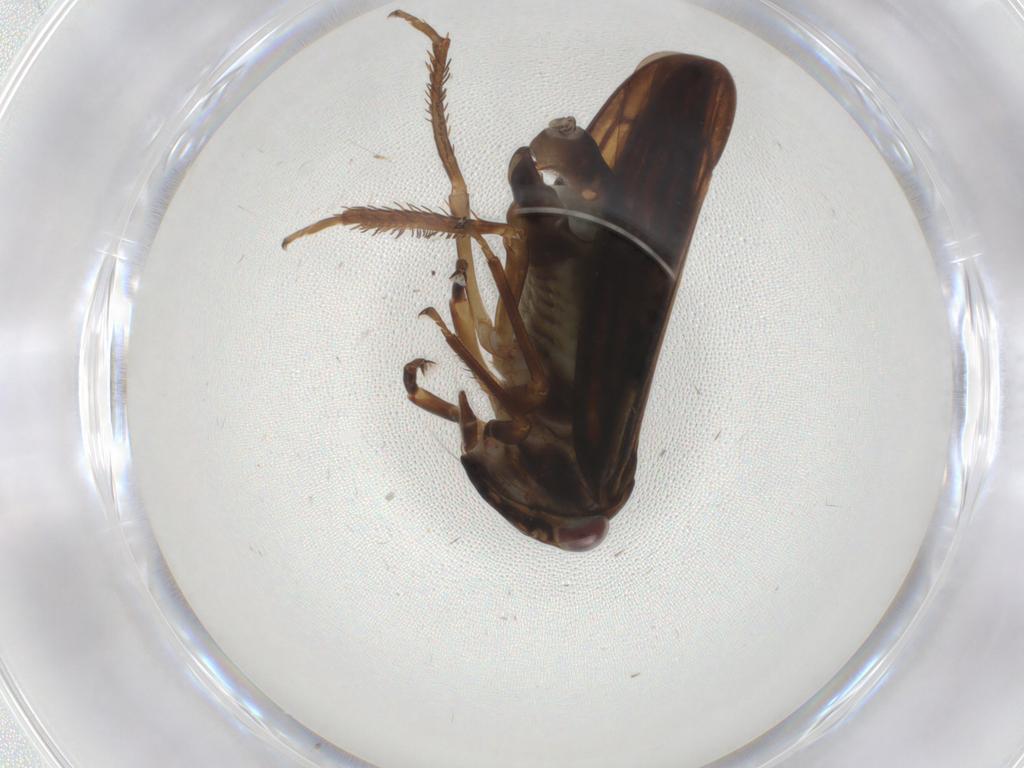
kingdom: Animalia
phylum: Arthropoda
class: Insecta
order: Hemiptera
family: Cicadellidae
